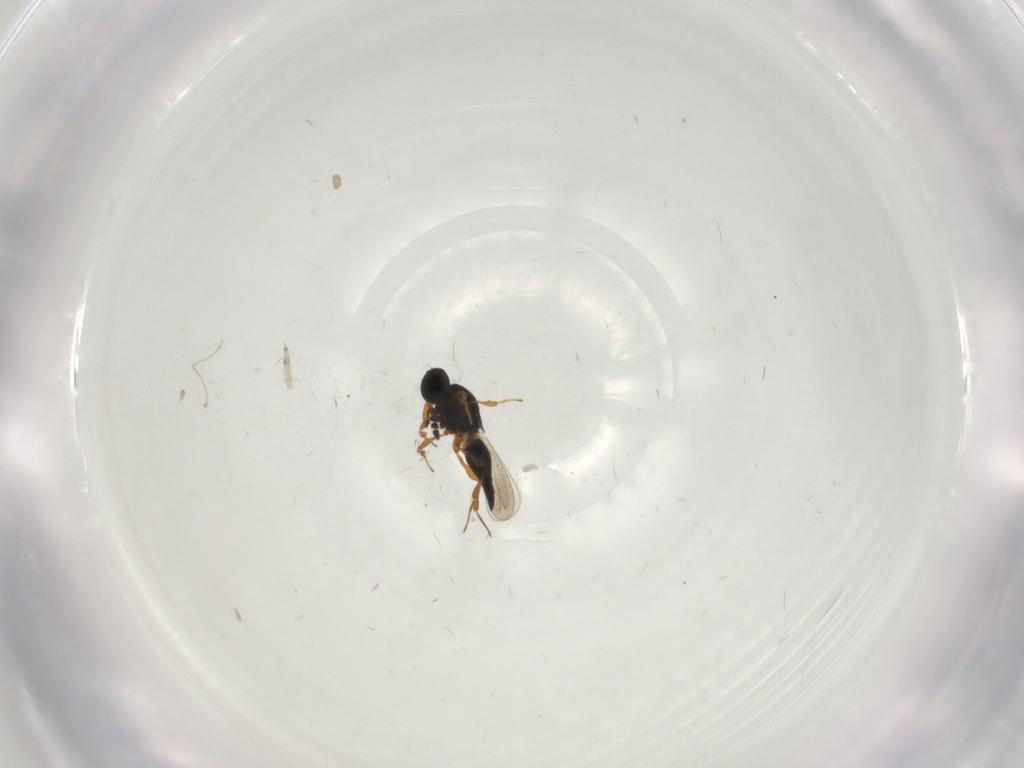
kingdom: Animalia
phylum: Arthropoda
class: Insecta
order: Hymenoptera
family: Platygastridae
